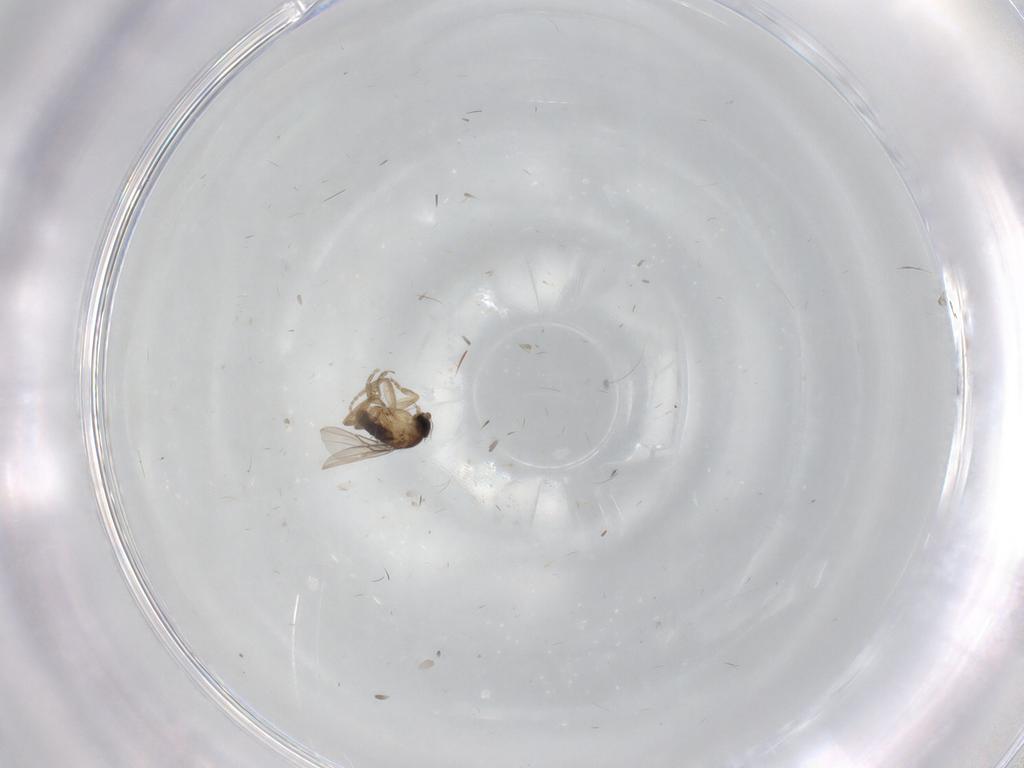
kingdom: Animalia
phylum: Arthropoda
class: Insecta
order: Diptera
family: Phoridae
